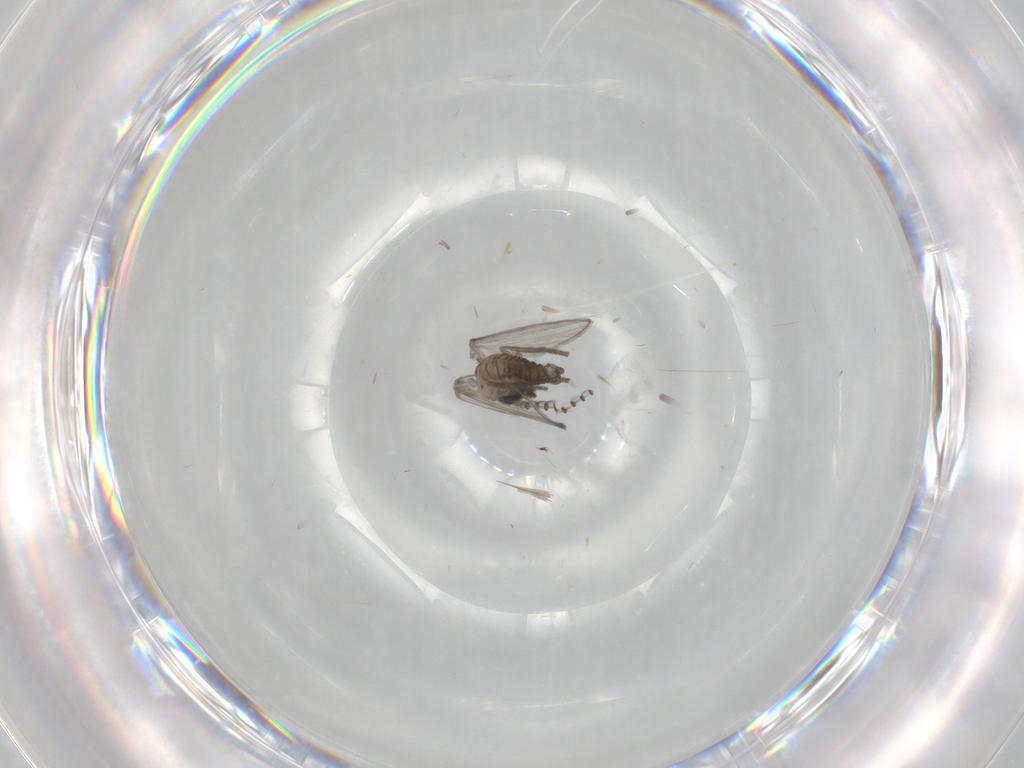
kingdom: Animalia
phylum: Arthropoda
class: Insecta
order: Diptera
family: Psychodidae
